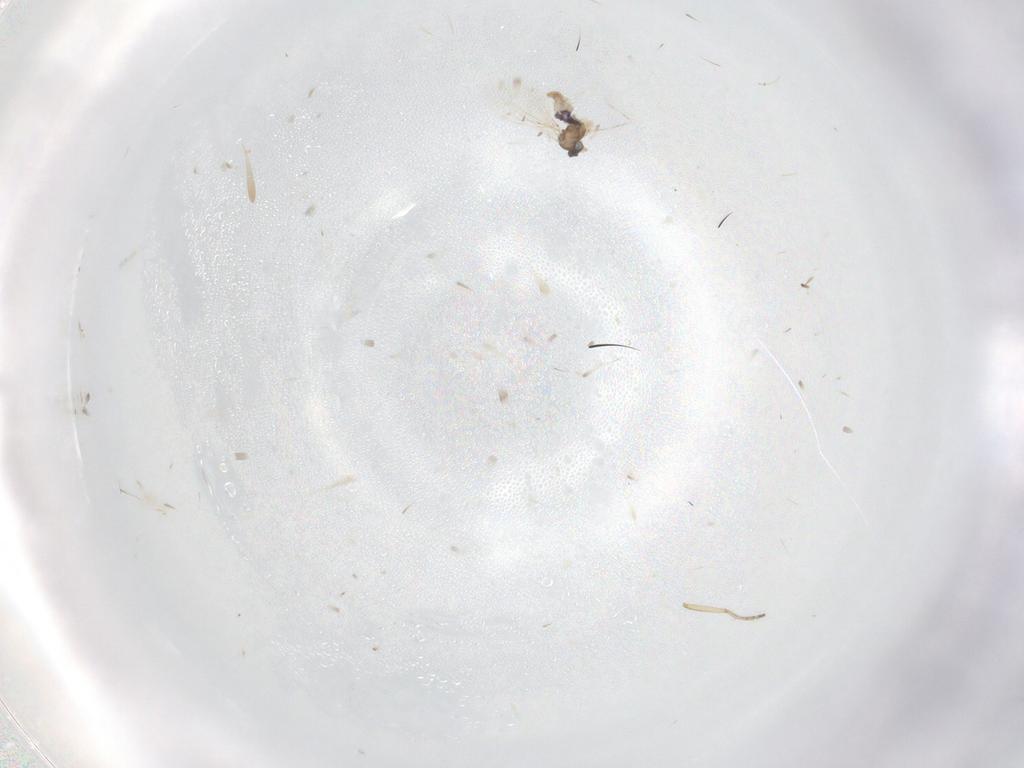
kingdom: Animalia
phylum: Arthropoda
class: Insecta
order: Diptera
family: Cecidomyiidae
